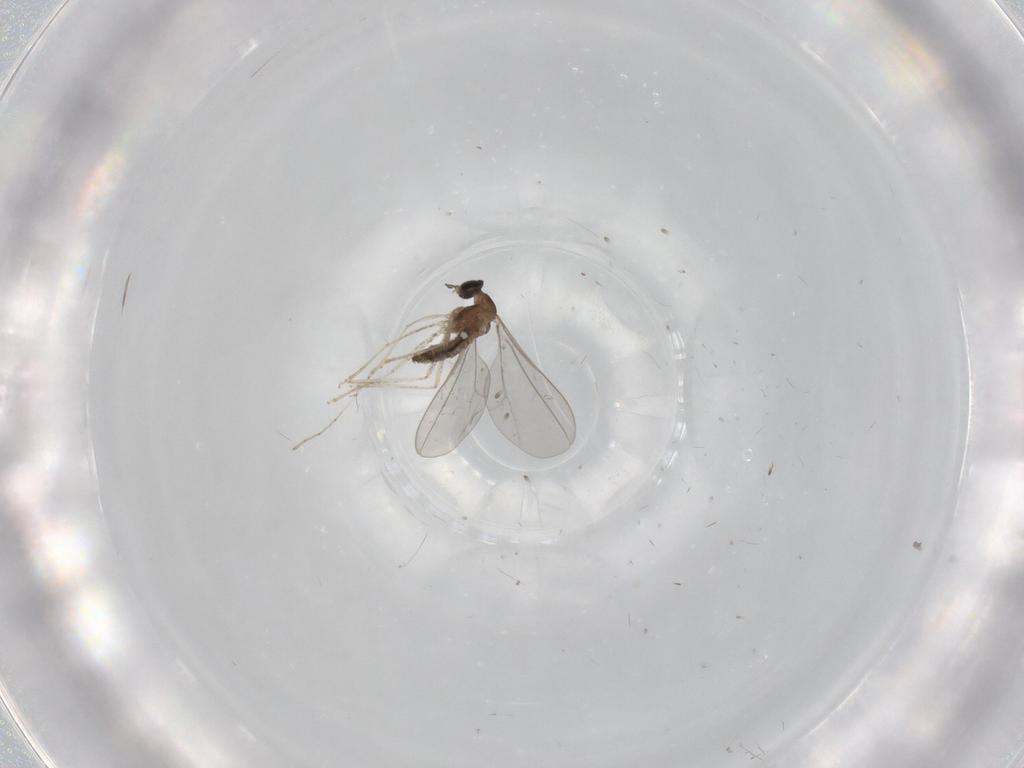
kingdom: Animalia
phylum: Arthropoda
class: Insecta
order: Diptera
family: Cecidomyiidae
